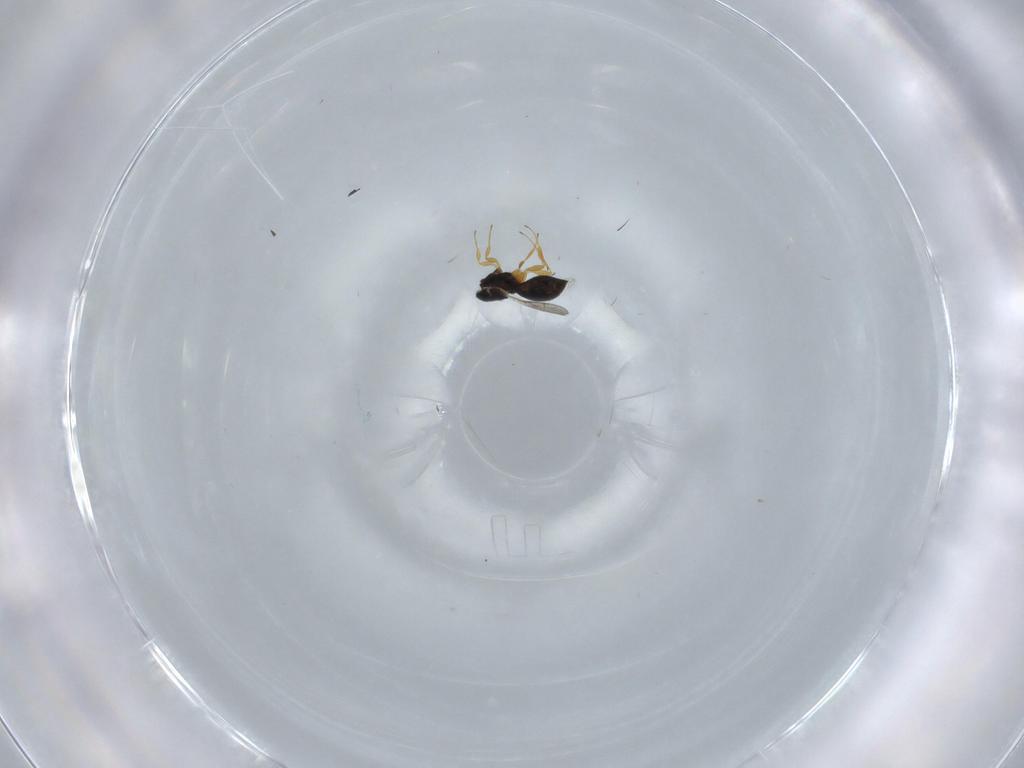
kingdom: Animalia
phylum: Arthropoda
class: Insecta
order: Hymenoptera
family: Scelionidae
